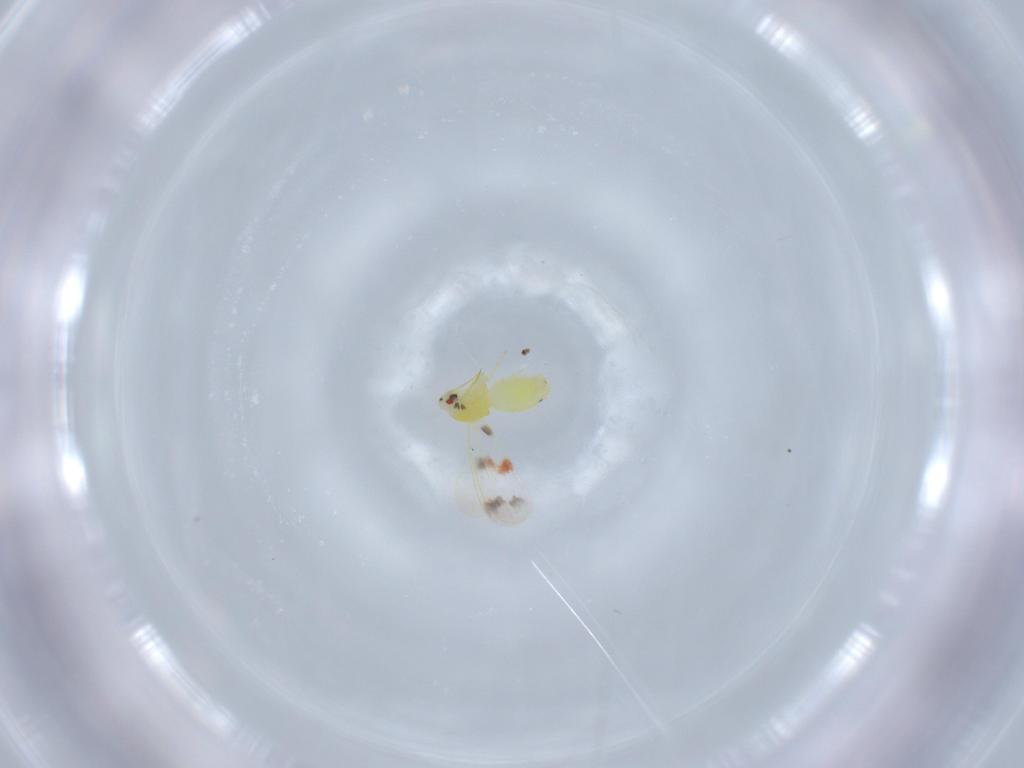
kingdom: Animalia
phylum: Arthropoda
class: Insecta
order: Hemiptera
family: Aleyrodidae
